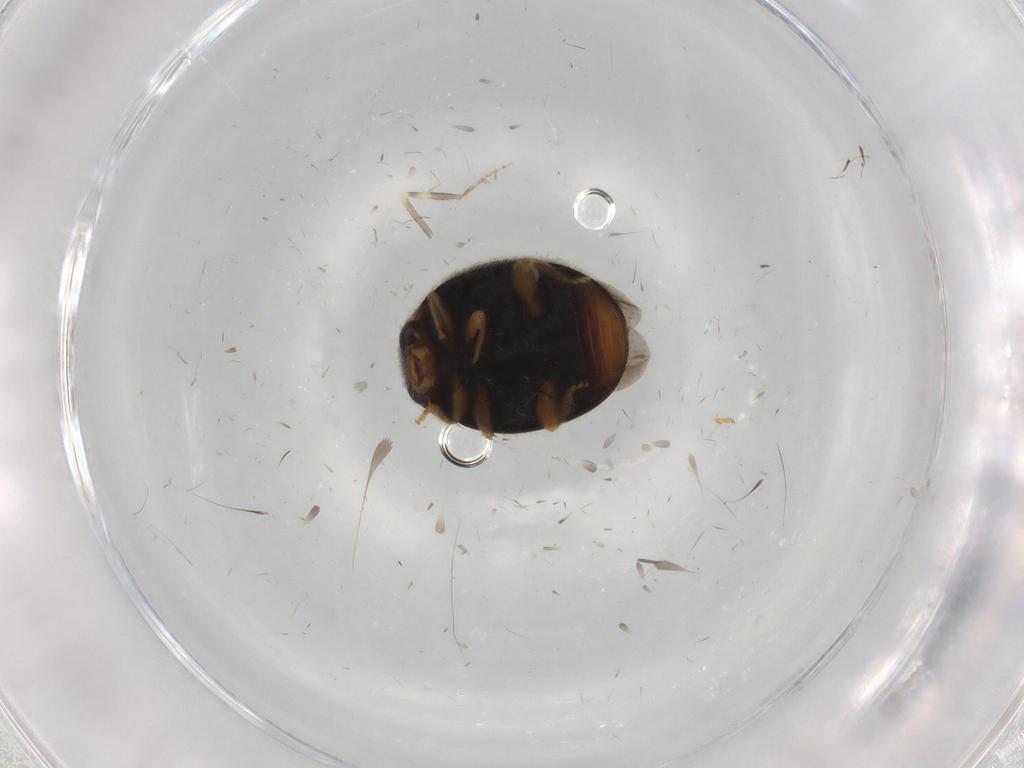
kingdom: Animalia
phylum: Arthropoda
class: Insecta
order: Coleoptera
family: Coccinellidae
